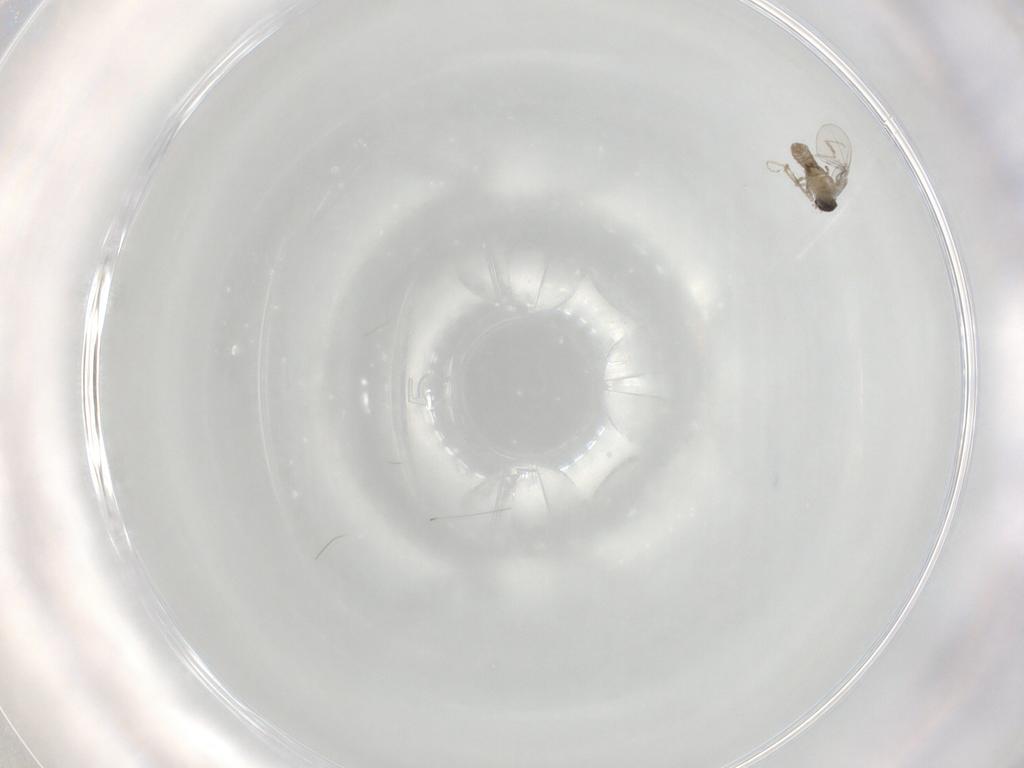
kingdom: Animalia
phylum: Arthropoda
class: Insecta
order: Diptera
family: Cecidomyiidae
